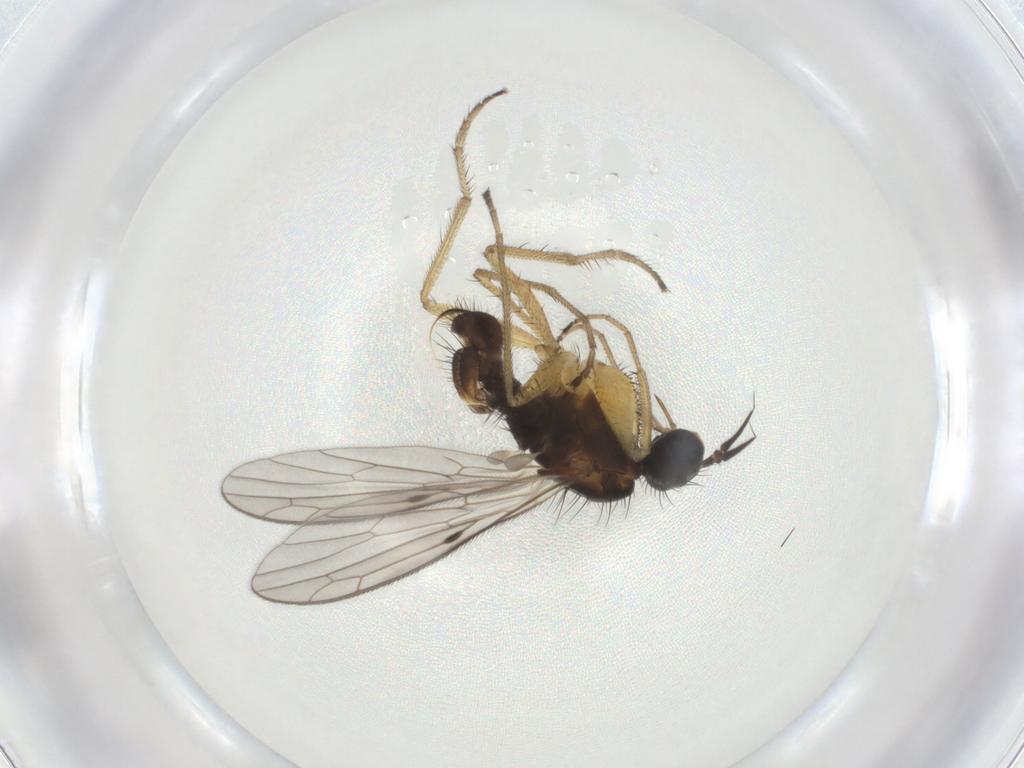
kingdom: Animalia
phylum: Arthropoda
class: Insecta
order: Diptera
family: Chironomidae
